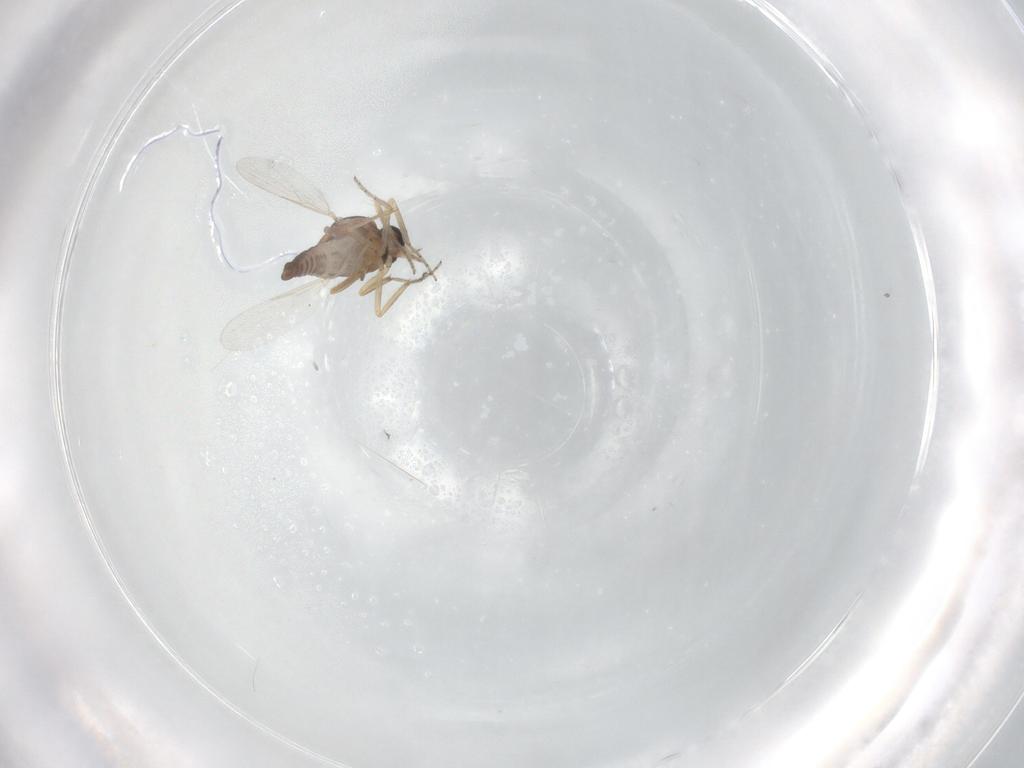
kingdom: Animalia
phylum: Arthropoda
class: Insecta
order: Diptera
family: Ceratopogonidae
